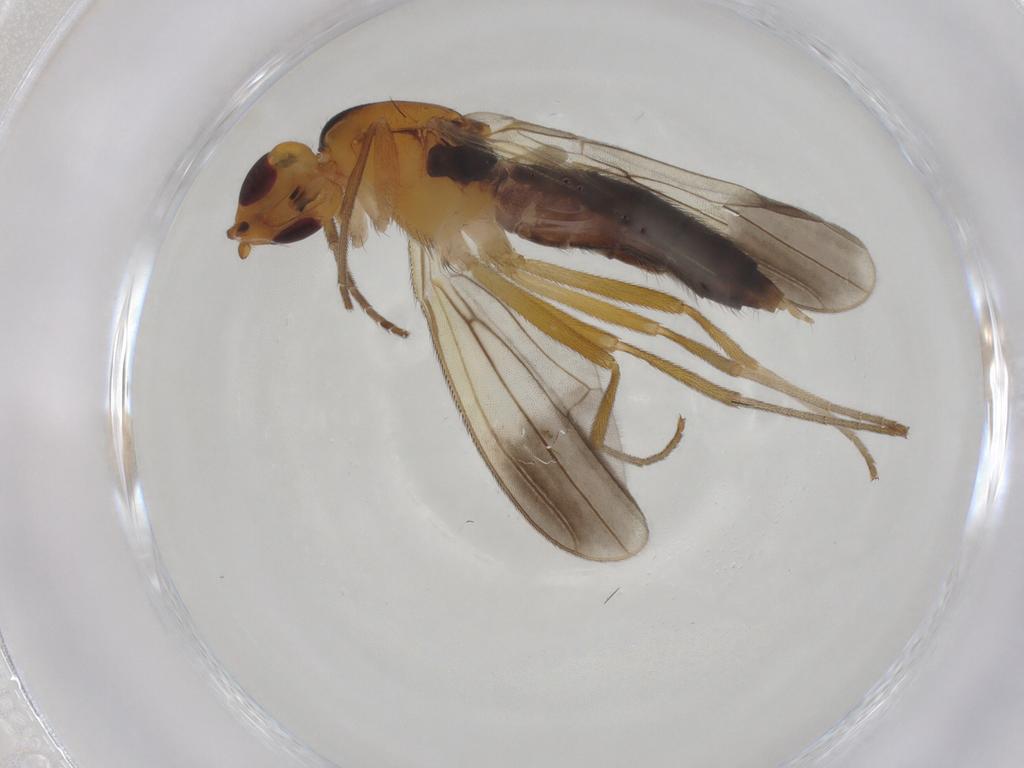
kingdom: Animalia
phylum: Arthropoda
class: Insecta
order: Diptera
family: Psilidae
